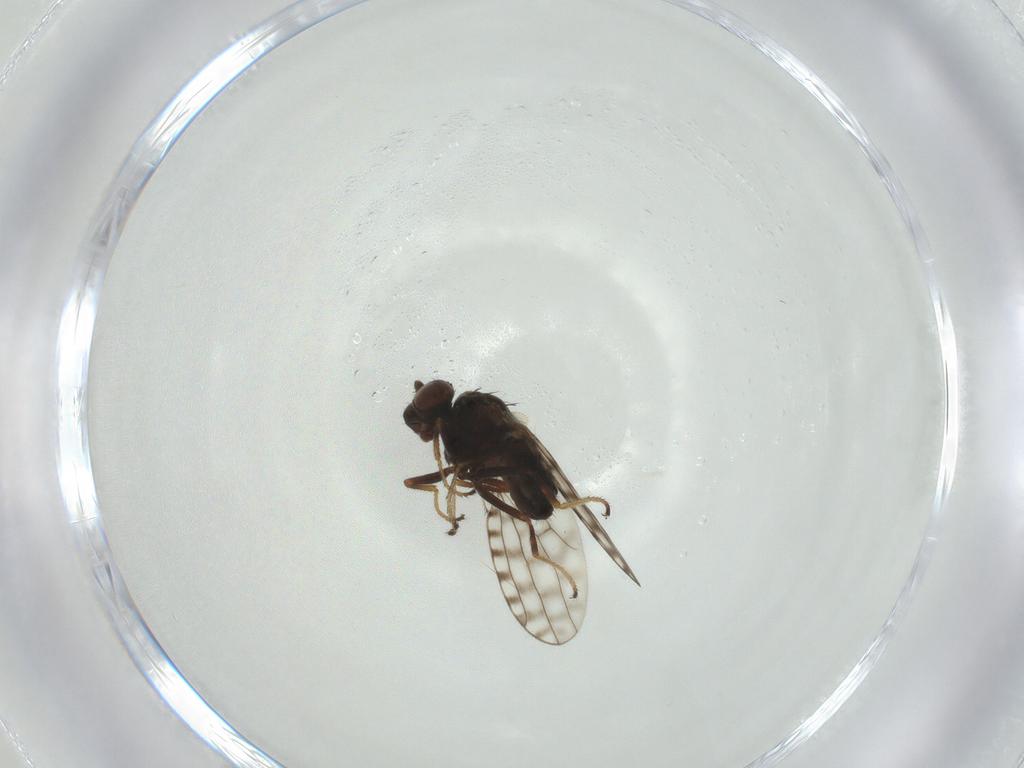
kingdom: Animalia
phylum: Arthropoda
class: Insecta
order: Diptera
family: Ephydridae
